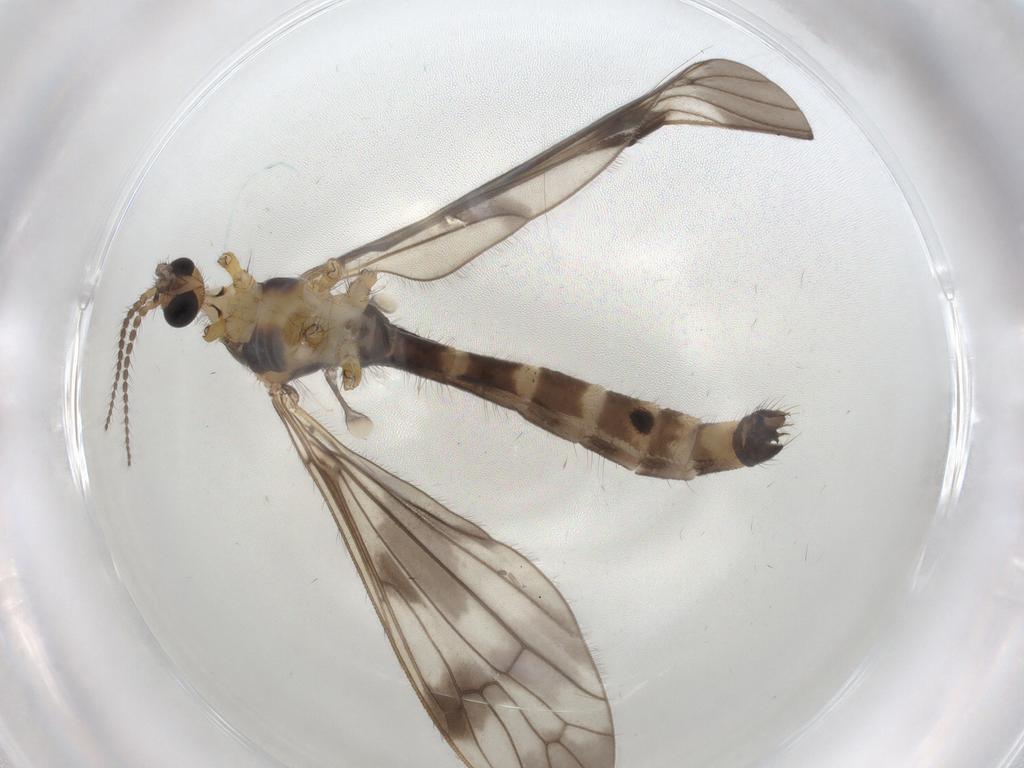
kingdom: Animalia
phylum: Arthropoda
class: Insecta
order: Diptera
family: Limoniidae
